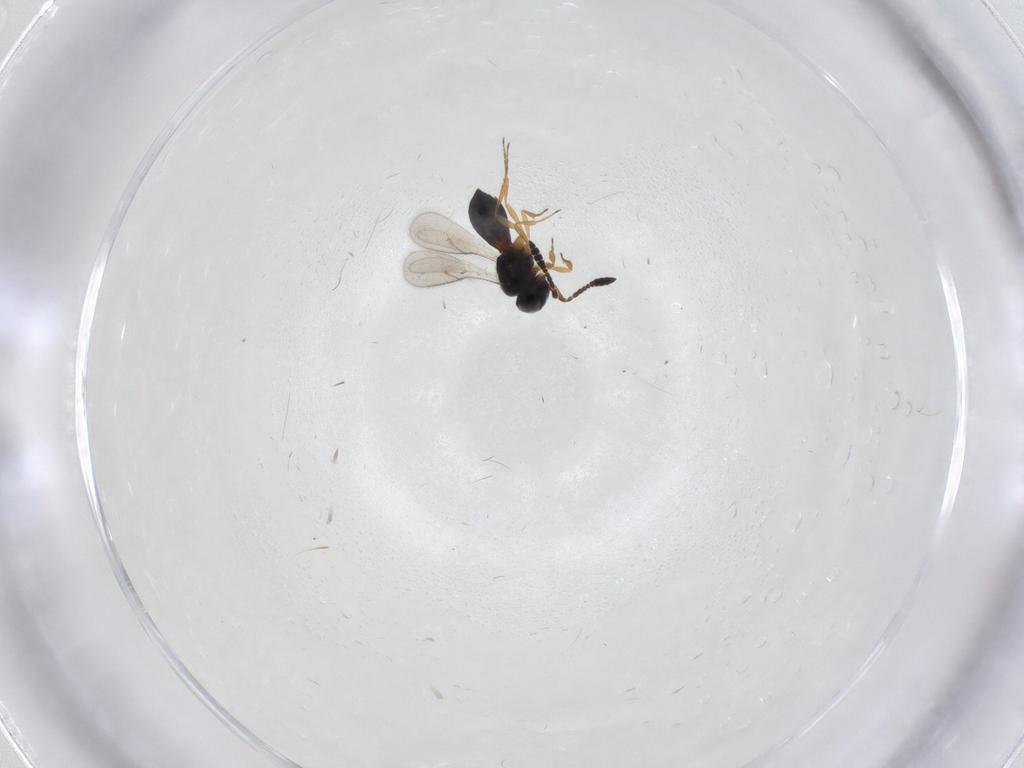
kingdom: Animalia
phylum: Arthropoda
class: Insecta
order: Hymenoptera
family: Scelionidae
